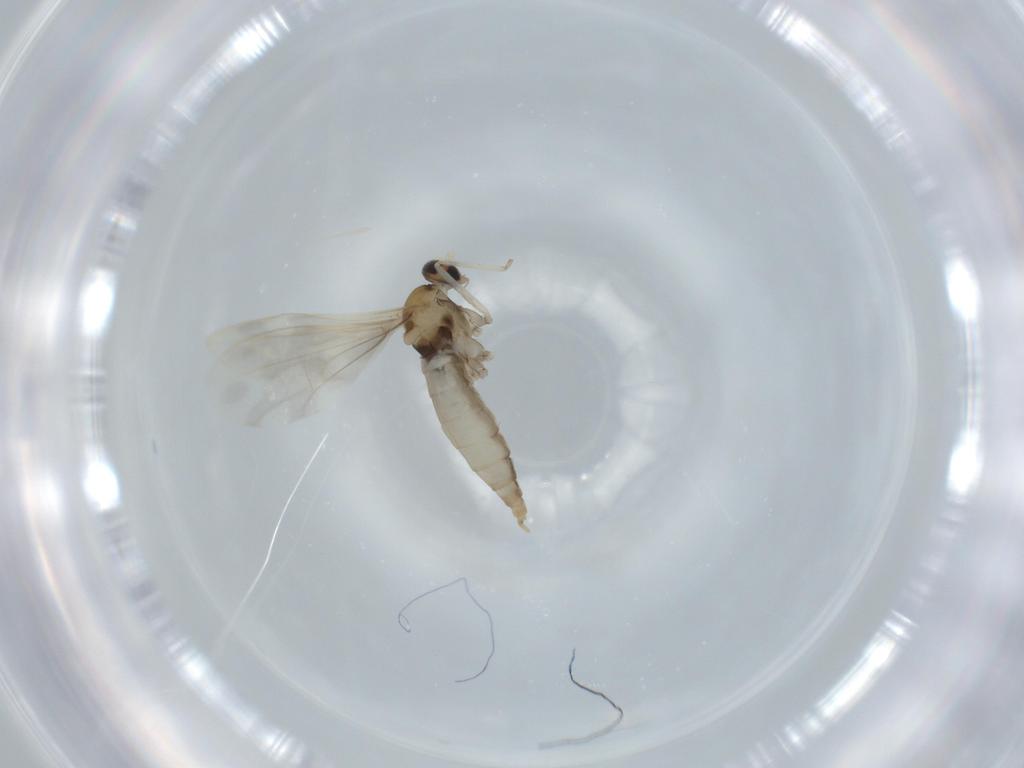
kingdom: Animalia
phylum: Arthropoda
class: Insecta
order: Diptera
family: Cecidomyiidae
